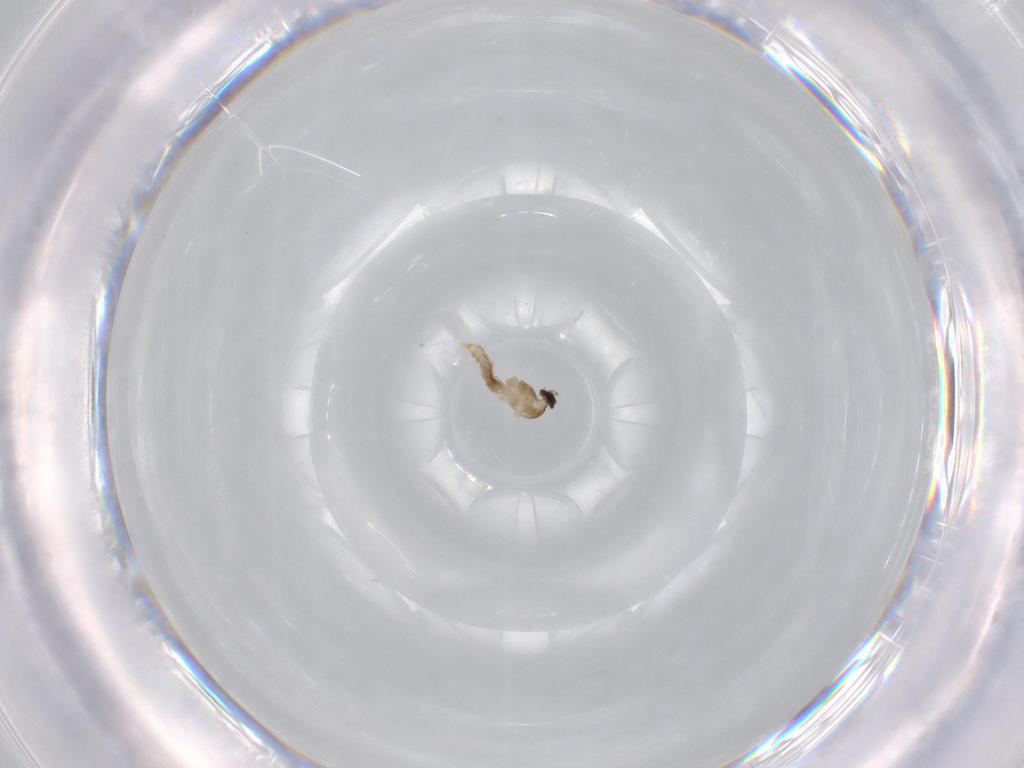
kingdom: Animalia
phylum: Arthropoda
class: Insecta
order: Diptera
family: Sciaridae
